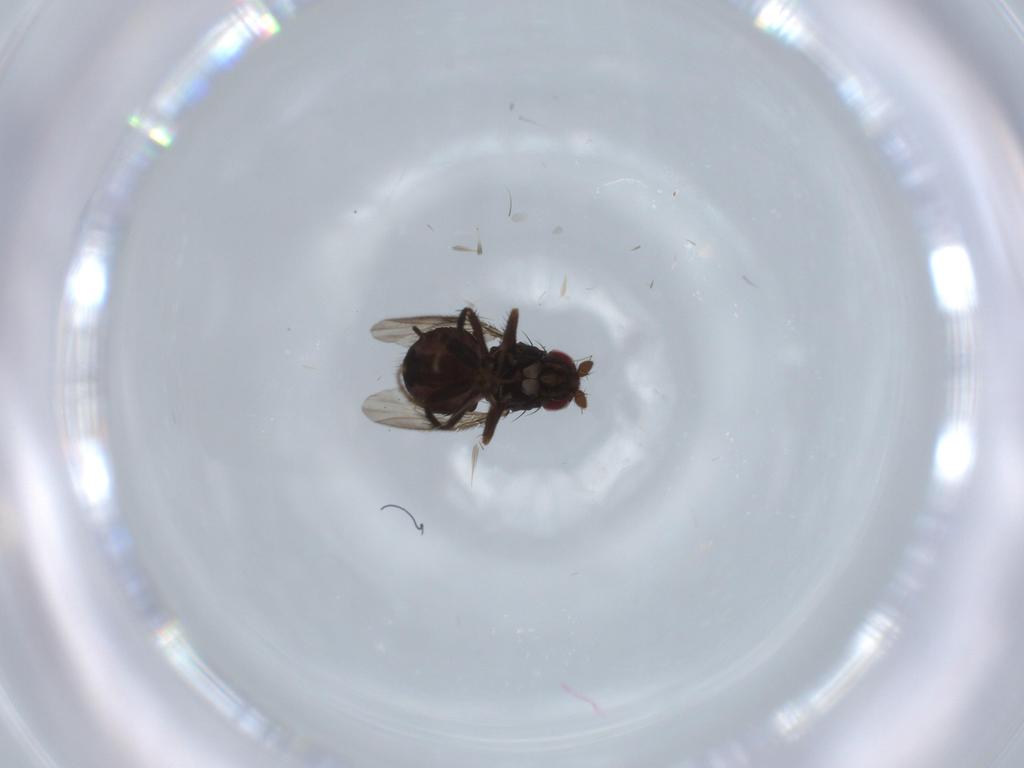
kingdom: Animalia
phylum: Arthropoda
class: Insecta
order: Diptera
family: Sphaeroceridae
